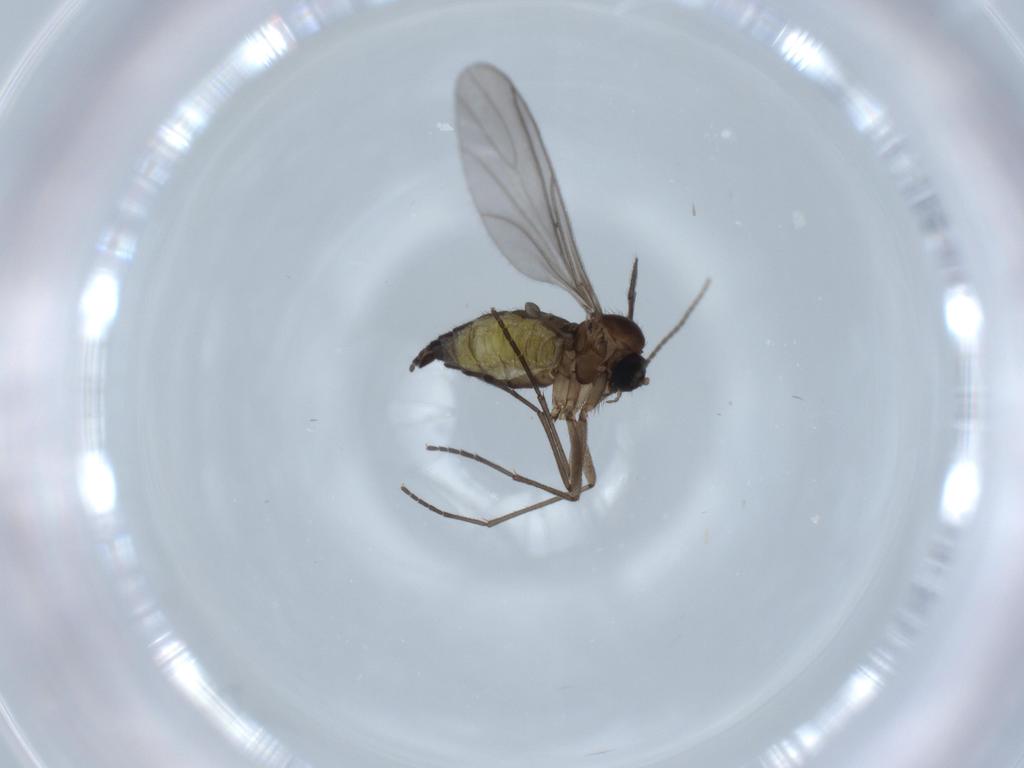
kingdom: Animalia
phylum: Arthropoda
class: Insecta
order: Diptera
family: Sciaridae
